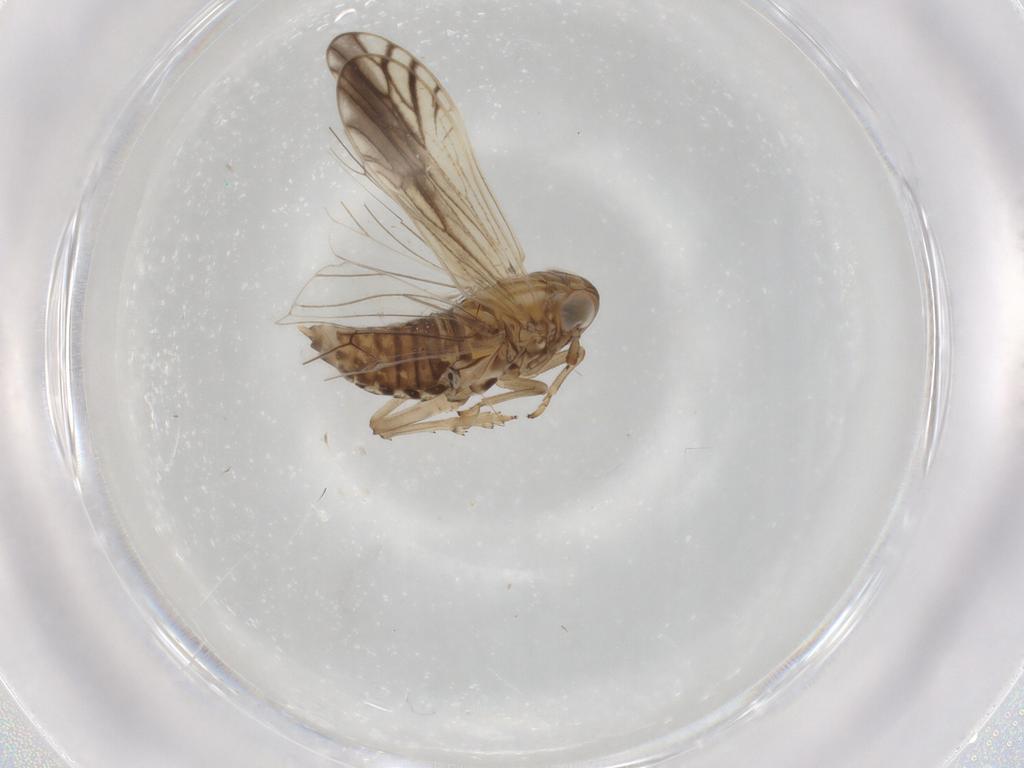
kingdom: Animalia
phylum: Arthropoda
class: Insecta
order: Hemiptera
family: Delphacidae
